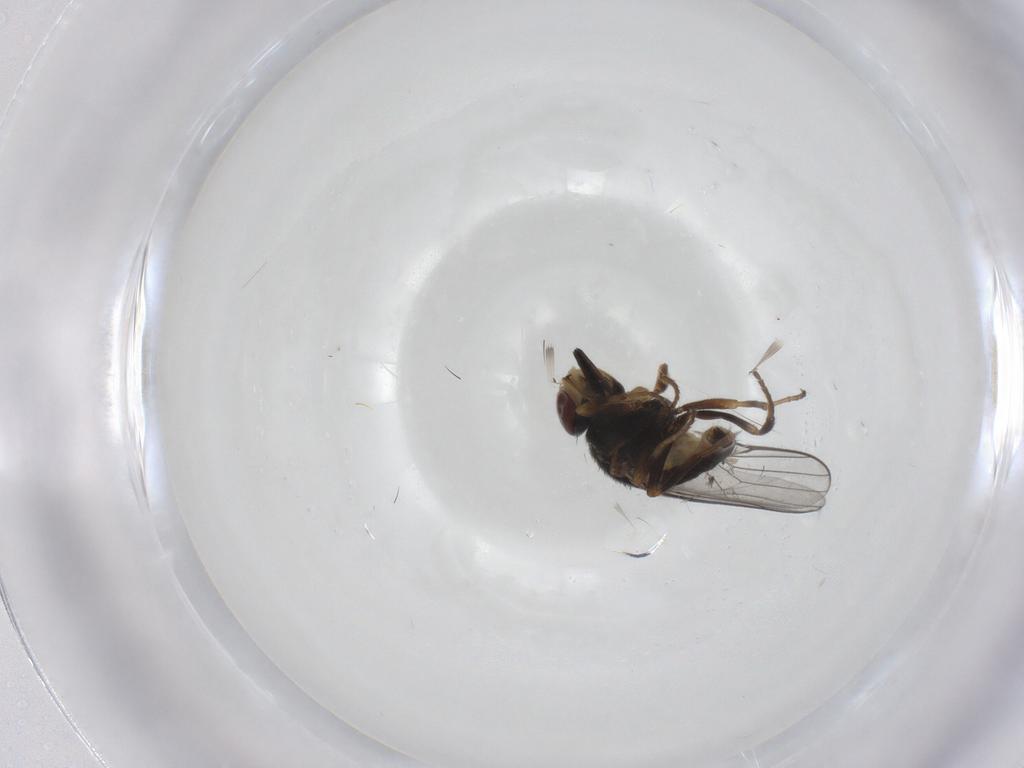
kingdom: Animalia
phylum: Arthropoda
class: Insecta
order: Diptera
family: Chloropidae
